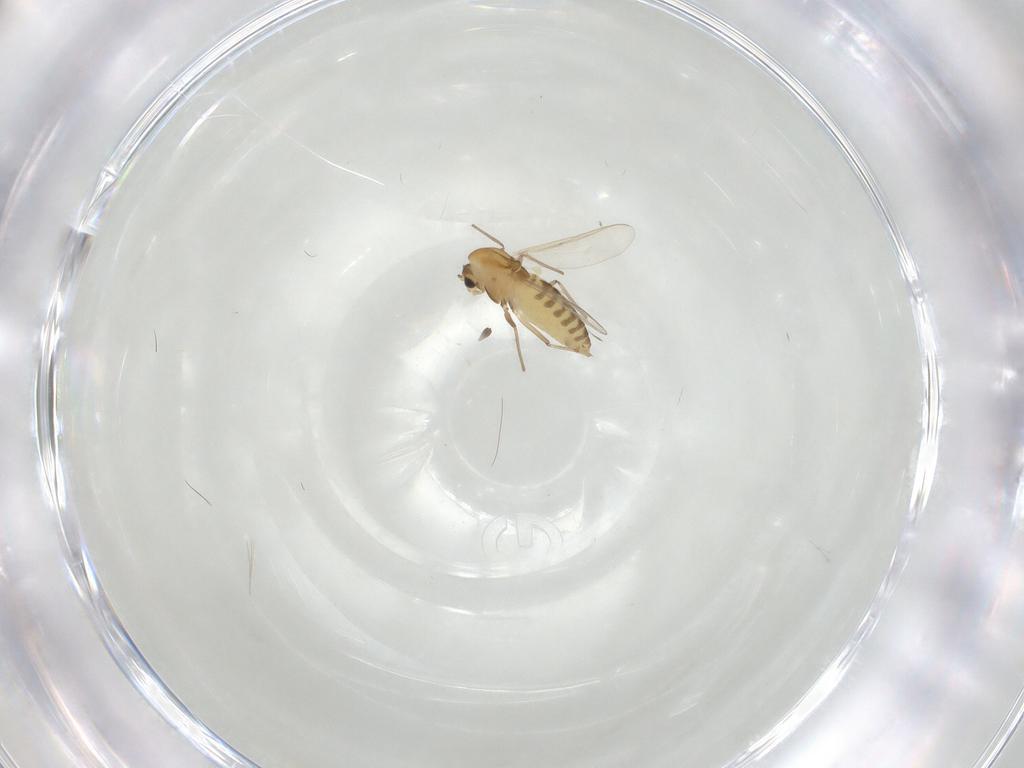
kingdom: Animalia
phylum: Arthropoda
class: Insecta
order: Diptera
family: Chironomidae
